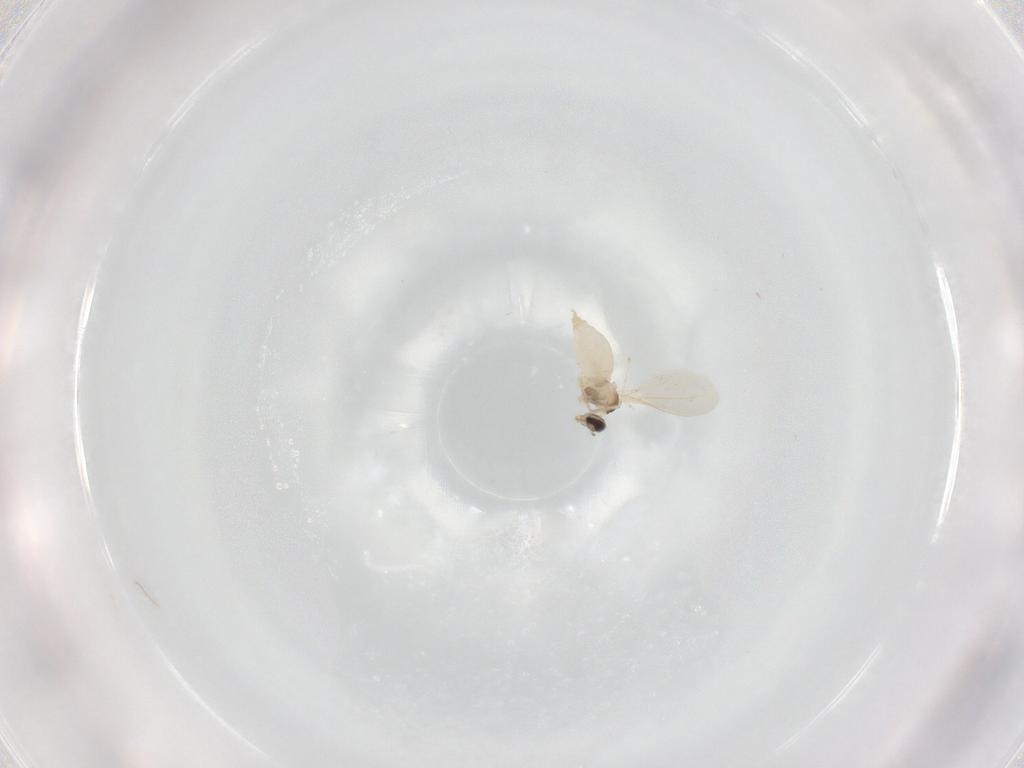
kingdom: Animalia
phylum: Arthropoda
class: Insecta
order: Diptera
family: Cecidomyiidae
